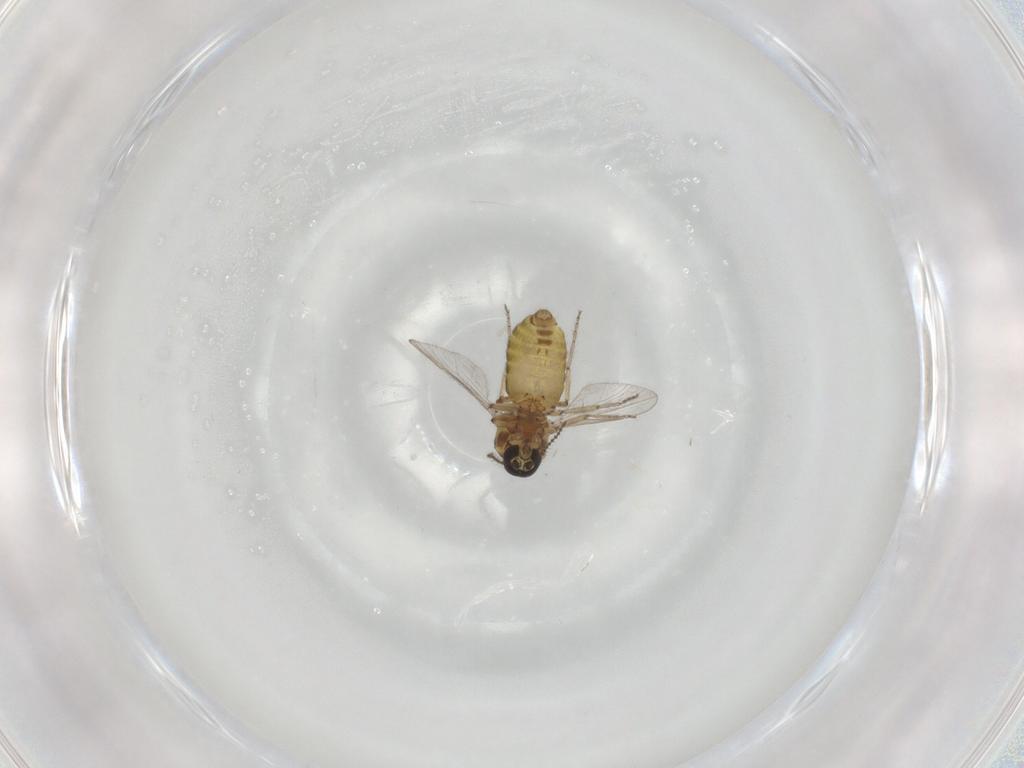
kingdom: Animalia
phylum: Arthropoda
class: Insecta
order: Diptera
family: Ceratopogonidae
